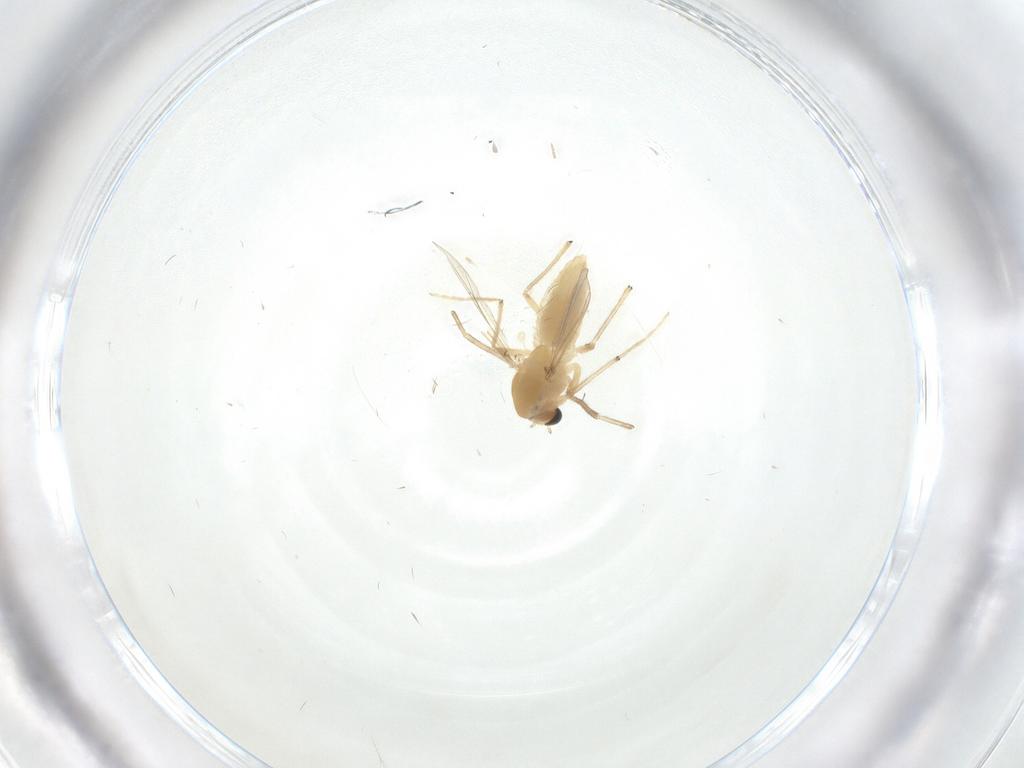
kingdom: Animalia
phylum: Arthropoda
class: Insecta
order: Diptera
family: Chironomidae
